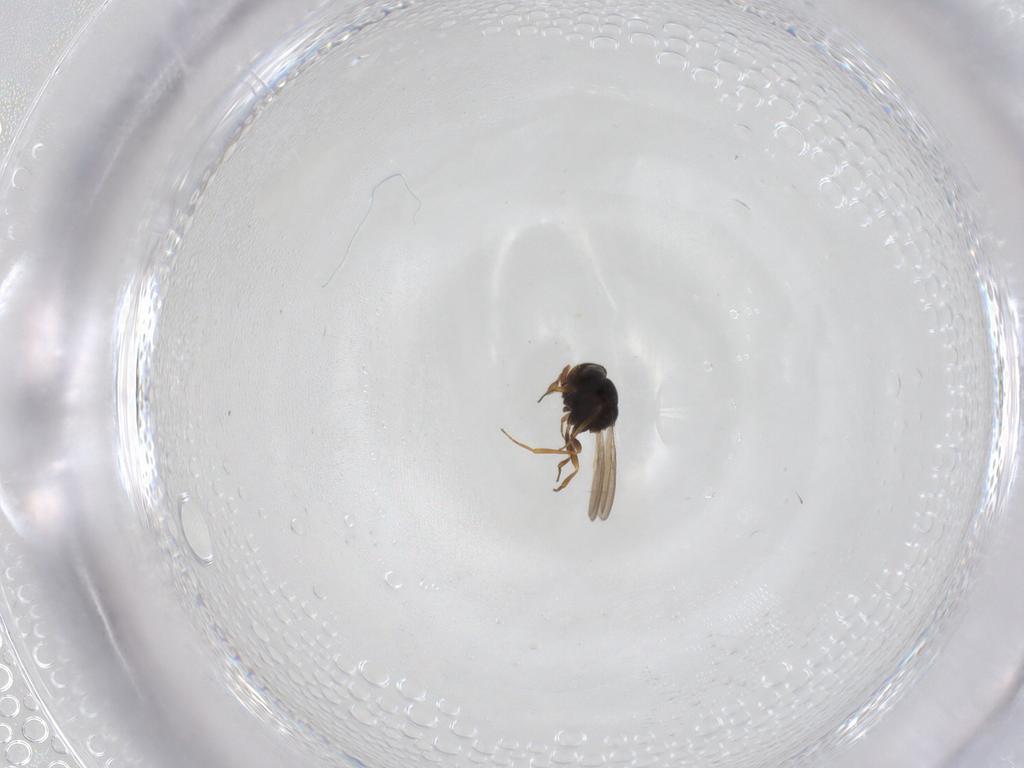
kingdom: Animalia
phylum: Arthropoda
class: Insecta
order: Hymenoptera
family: Scelionidae
